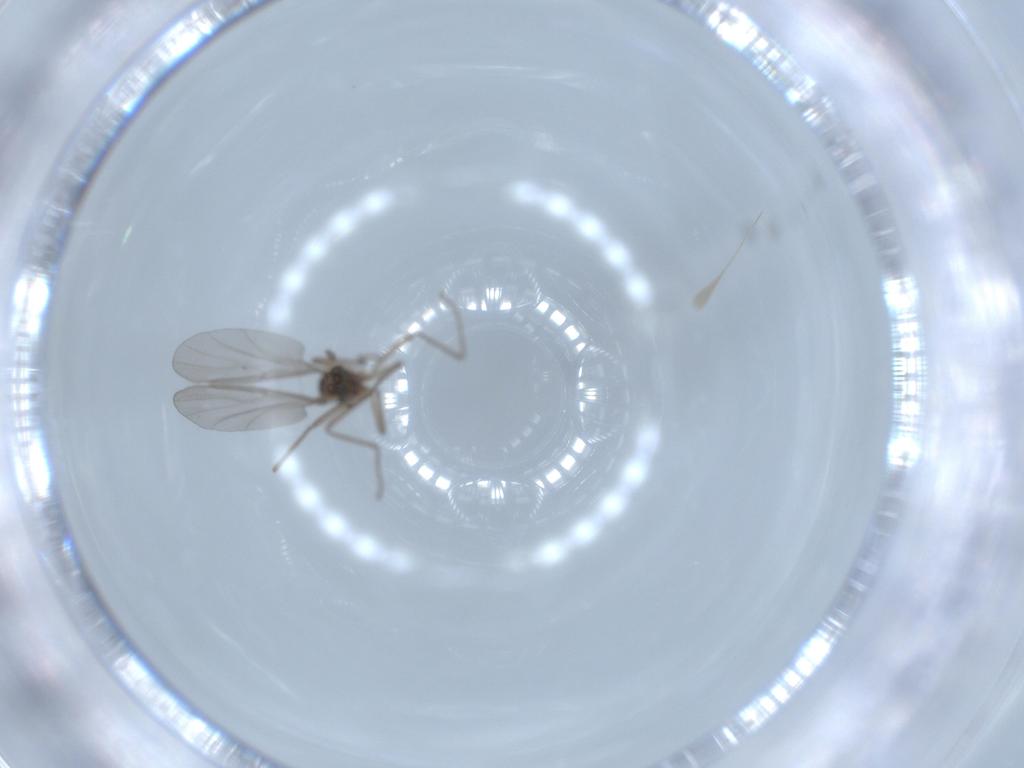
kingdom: Animalia
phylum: Arthropoda
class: Insecta
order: Diptera
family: Cecidomyiidae
